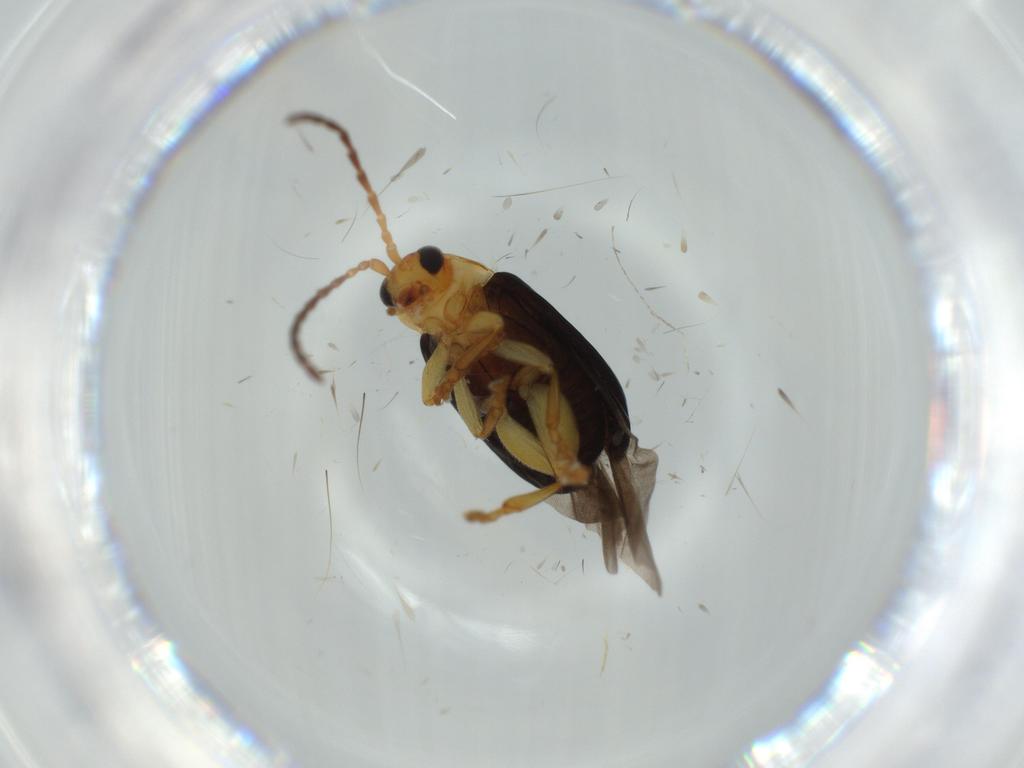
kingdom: Animalia
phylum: Arthropoda
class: Insecta
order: Coleoptera
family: Chrysomelidae
